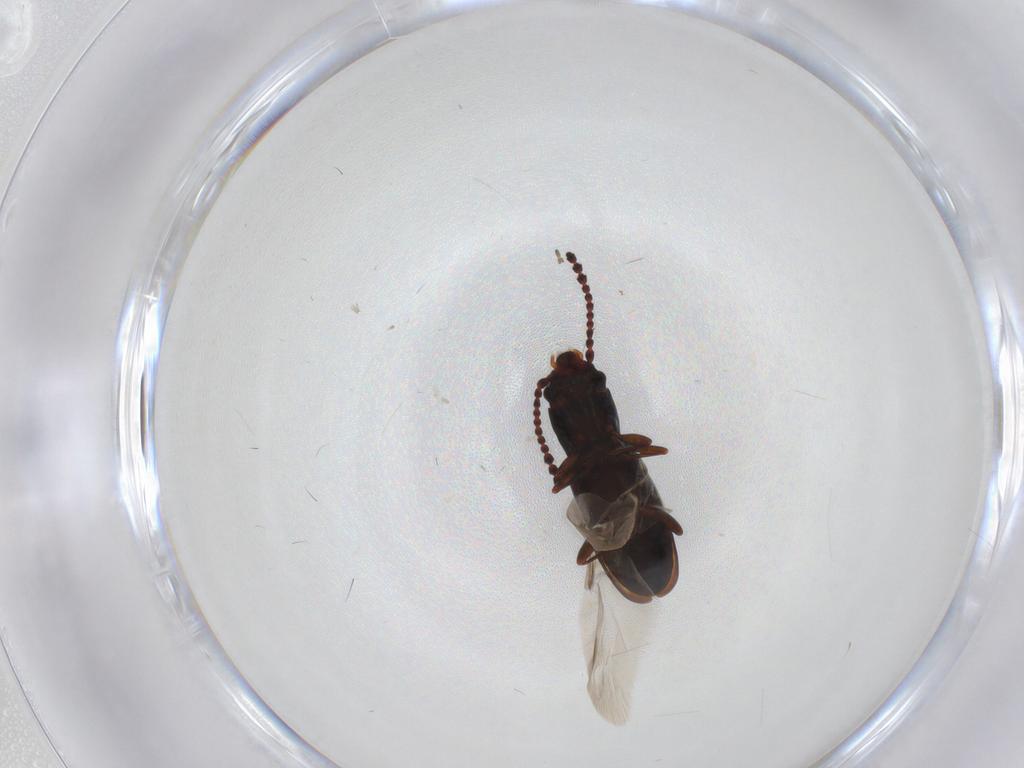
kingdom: Animalia
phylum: Arthropoda
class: Insecta
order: Coleoptera
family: Laemophloeidae
